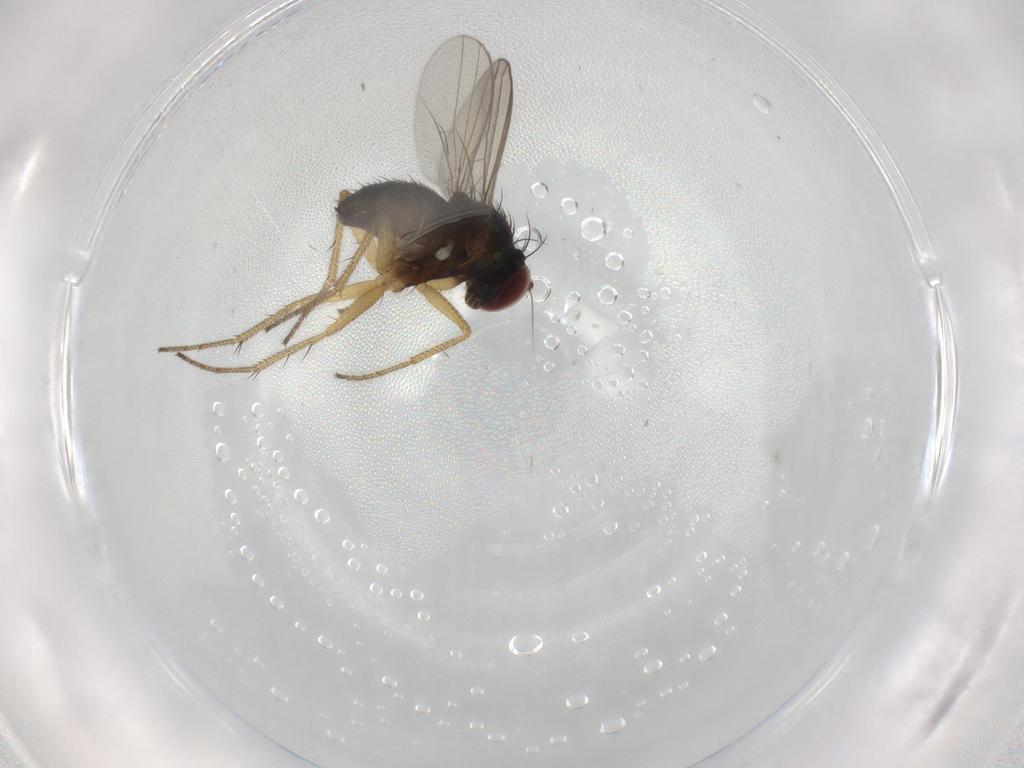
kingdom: Animalia
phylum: Arthropoda
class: Insecta
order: Diptera
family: Dolichopodidae
